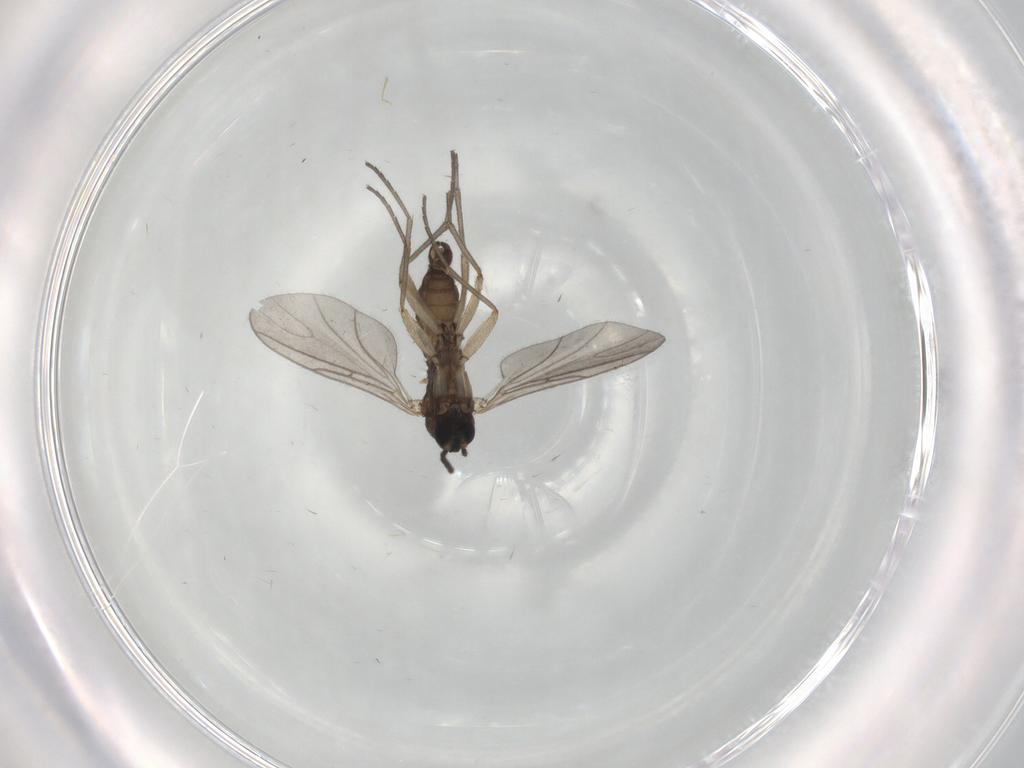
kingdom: Animalia
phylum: Arthropoda
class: Insecta
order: Diptera
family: Sciaridae
